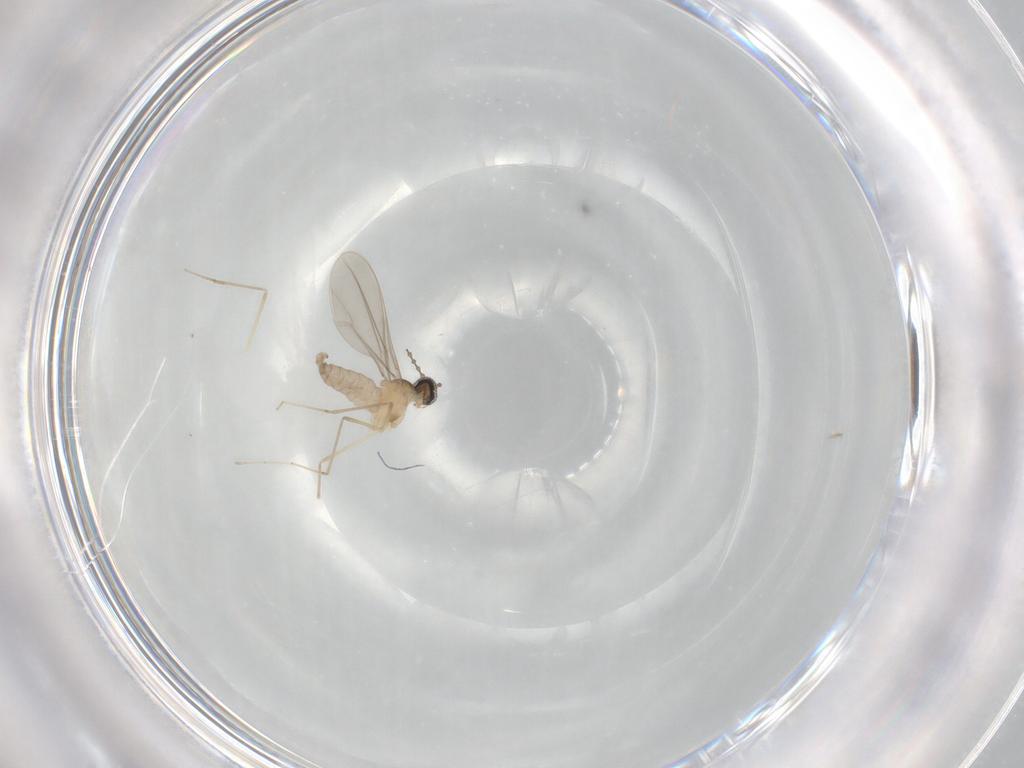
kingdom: Animalia
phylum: Arthropoda
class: Insecta
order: Diptera
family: Cecidomyiidae
